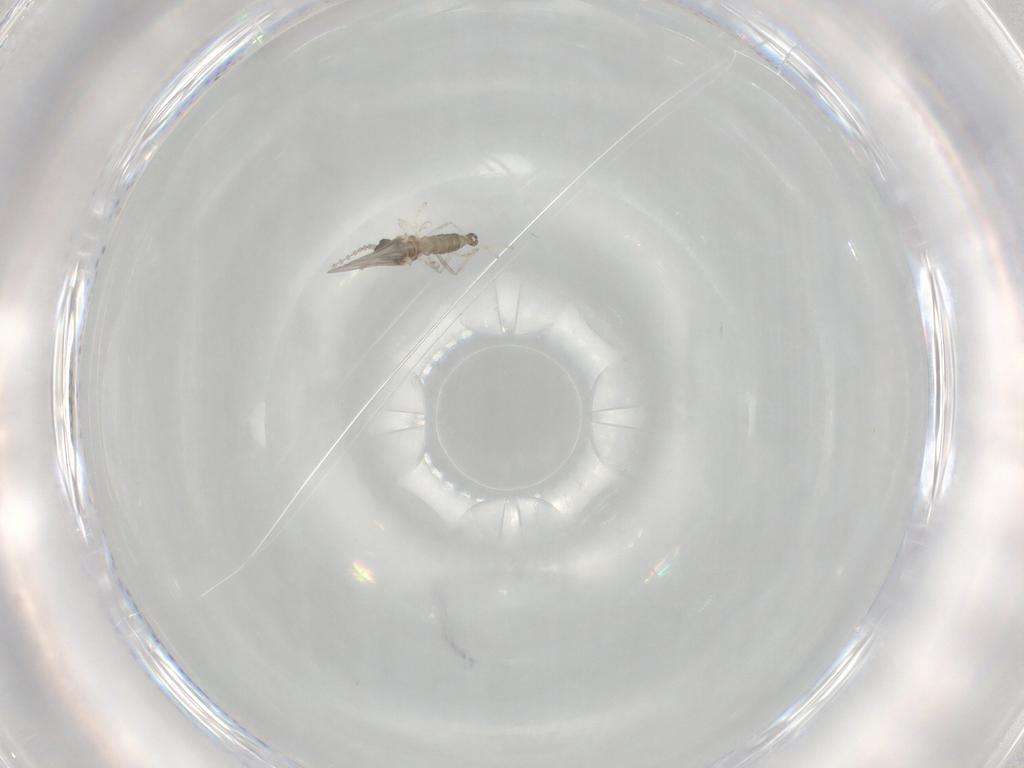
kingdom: Animalia
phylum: Arthropoda
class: Insecta
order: Diptera
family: Cecidomyiidae
